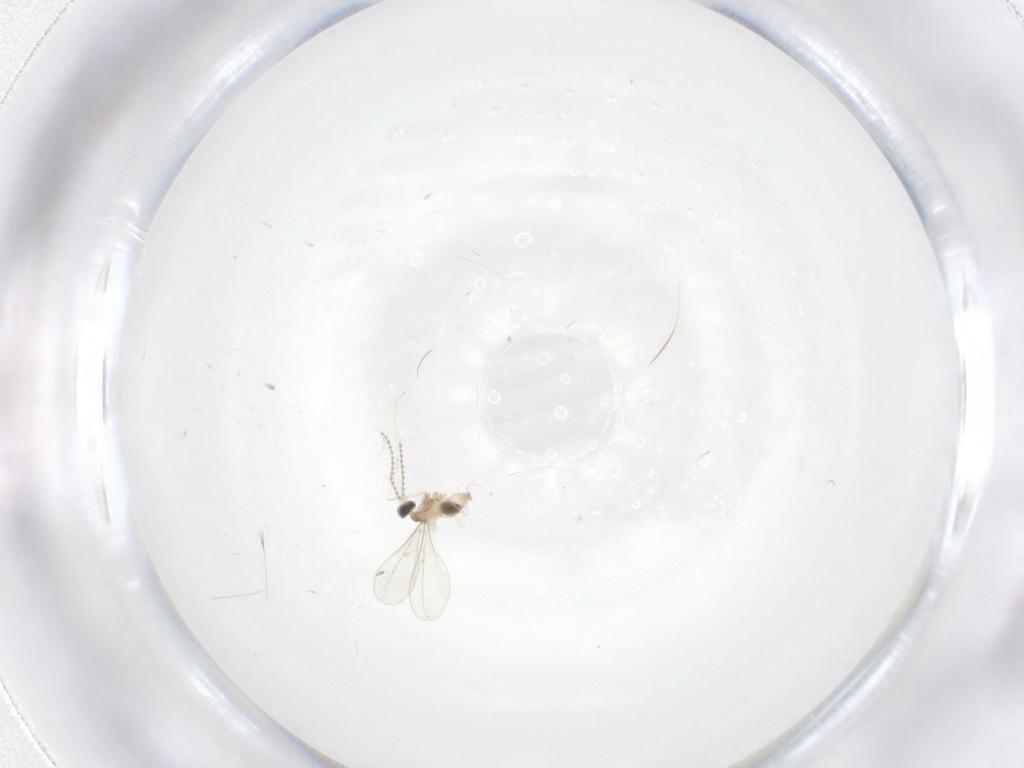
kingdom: Animalia
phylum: Arthropoda
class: Insecta
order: Diptera
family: Cecidomyiidae
